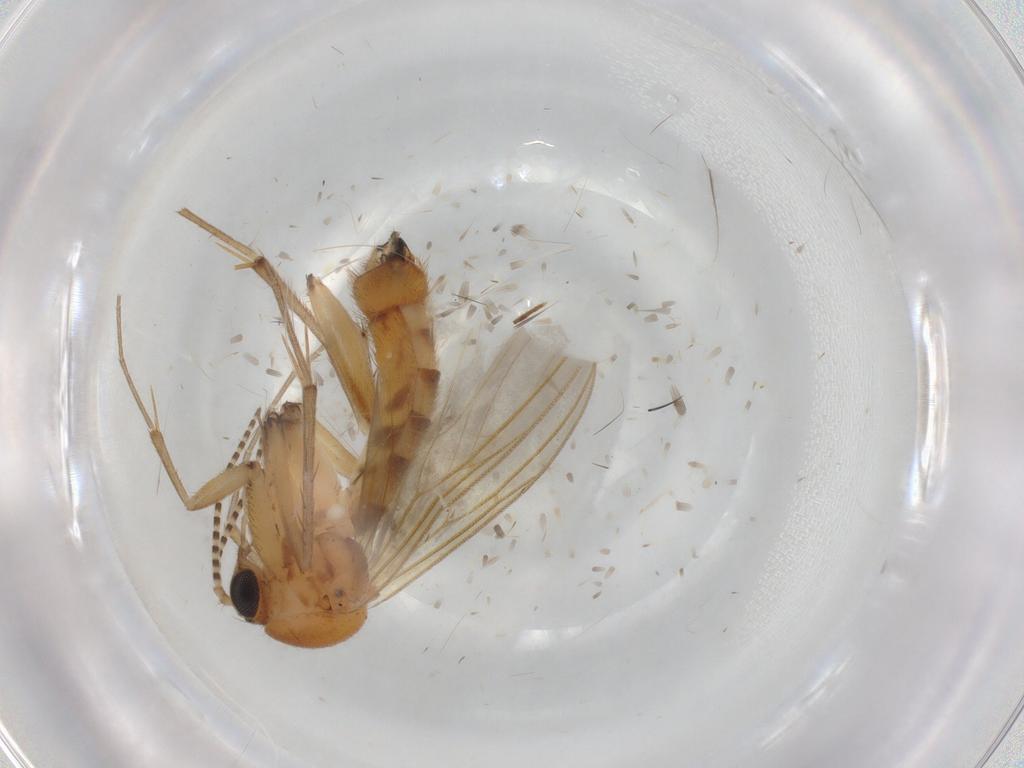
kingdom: Animalia
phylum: Arthropoda
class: Insecta
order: Diptera
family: Mycetophilidae
